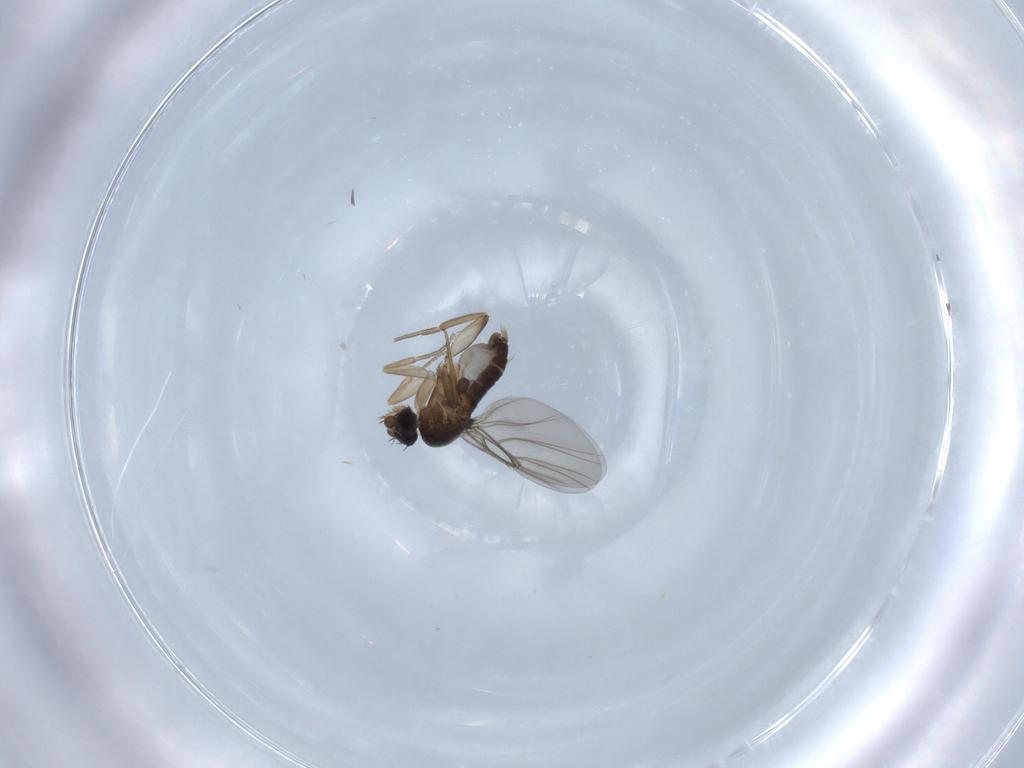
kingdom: Animalia
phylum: Arthropoda
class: Insecta
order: Diptera
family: Phoridae
